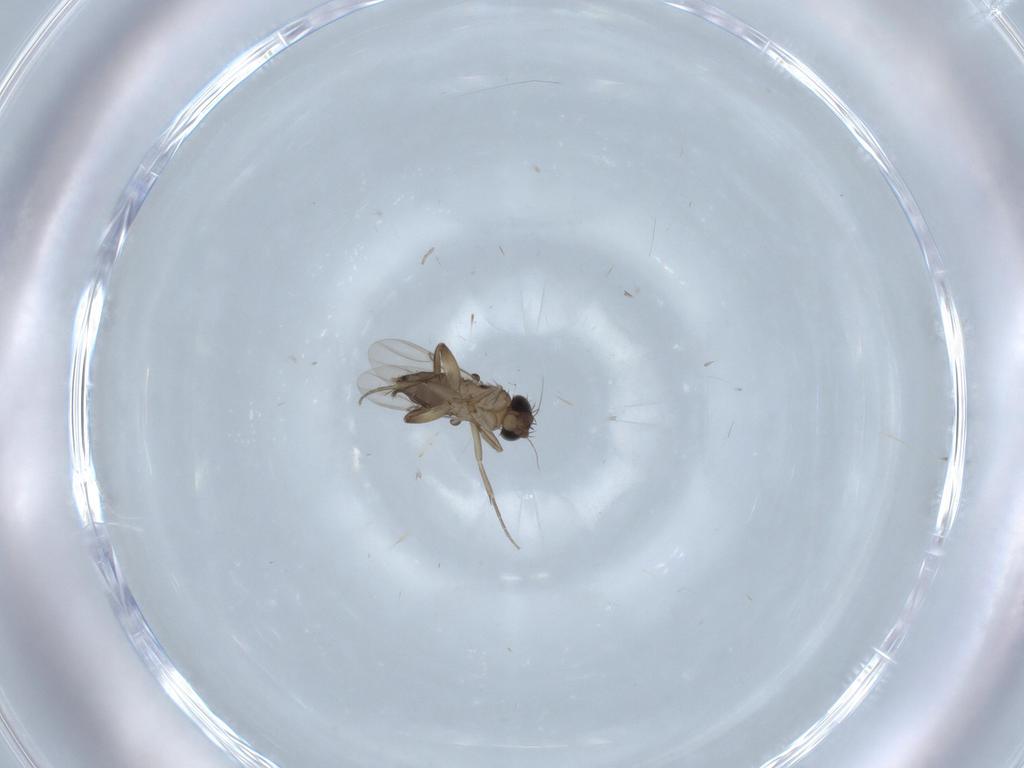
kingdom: Animalia
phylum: Arthropoda
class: Insecta
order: Diptera
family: Phoridae
